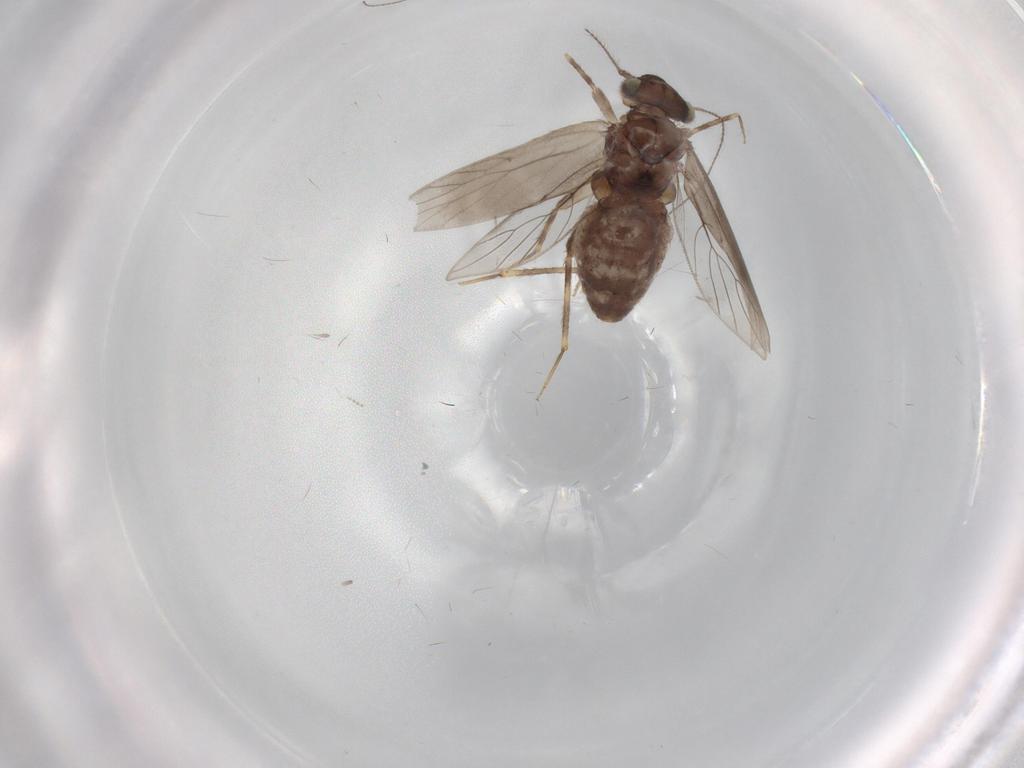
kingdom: Animalia
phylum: Arthropoda
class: Insecta
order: Psocodea
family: Lepidopsocidae
